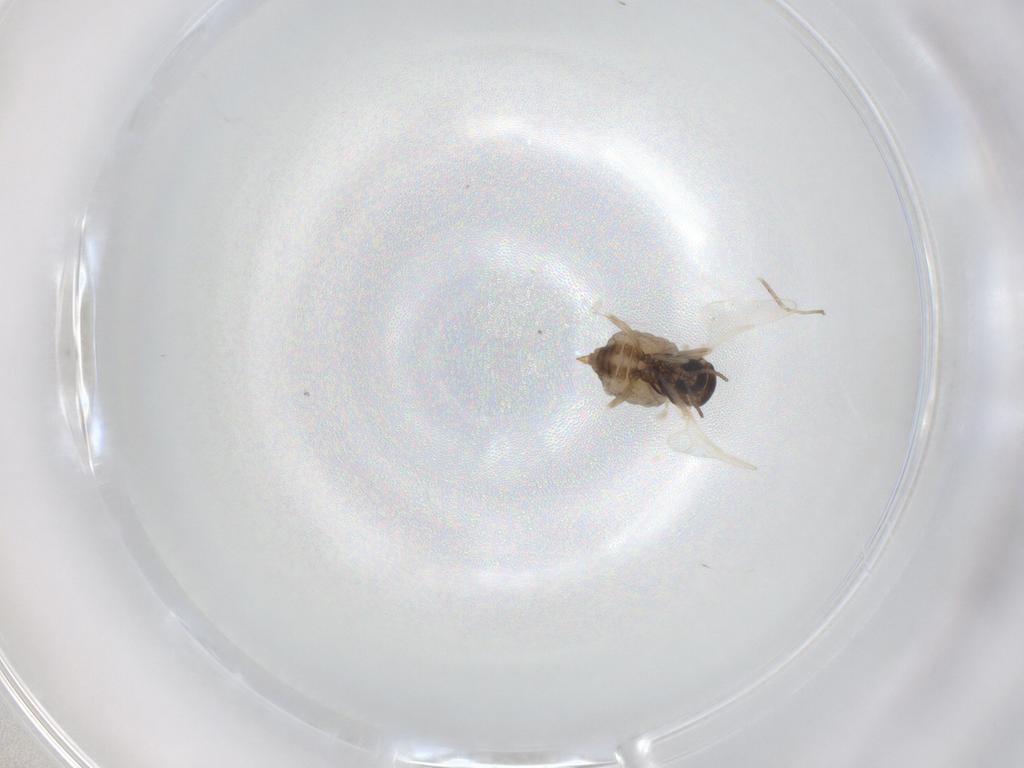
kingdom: Animalia
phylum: Arthropoda
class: Insecta
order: Diptera
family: Cecidomyiidae
